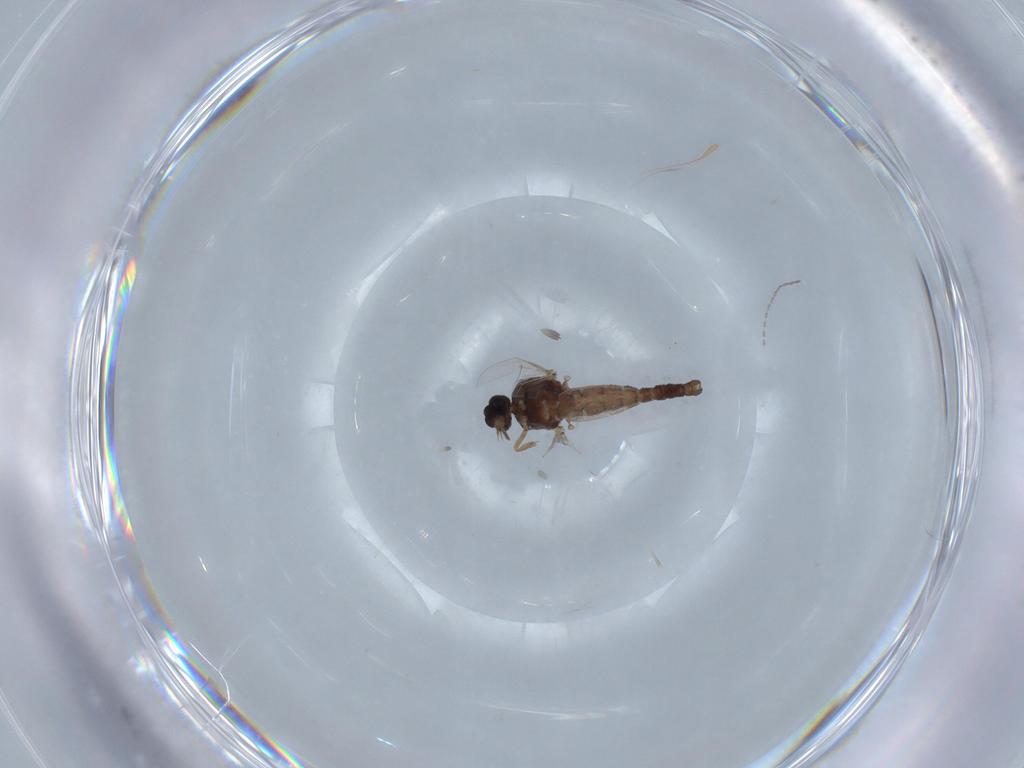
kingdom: Animalia
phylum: Arthropoda
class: Insecta
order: Diptera
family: Ceratopogonidae
